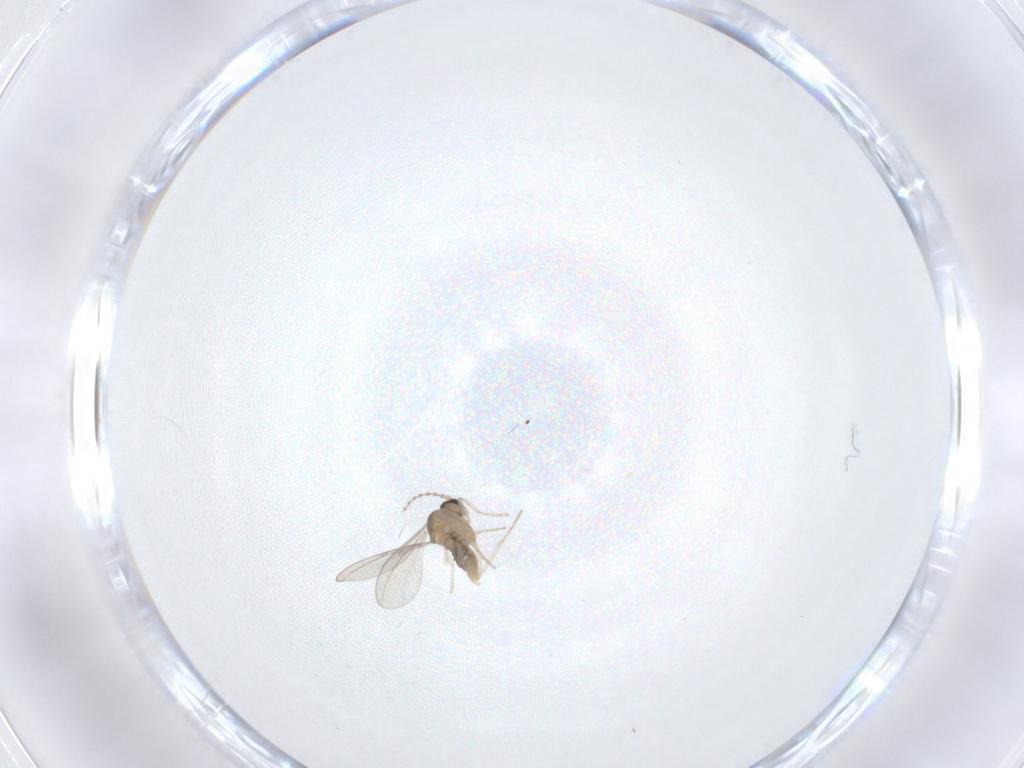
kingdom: Animalia
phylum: Arthropoda
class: Insecta
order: Diptera
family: Cecidomyiidae
